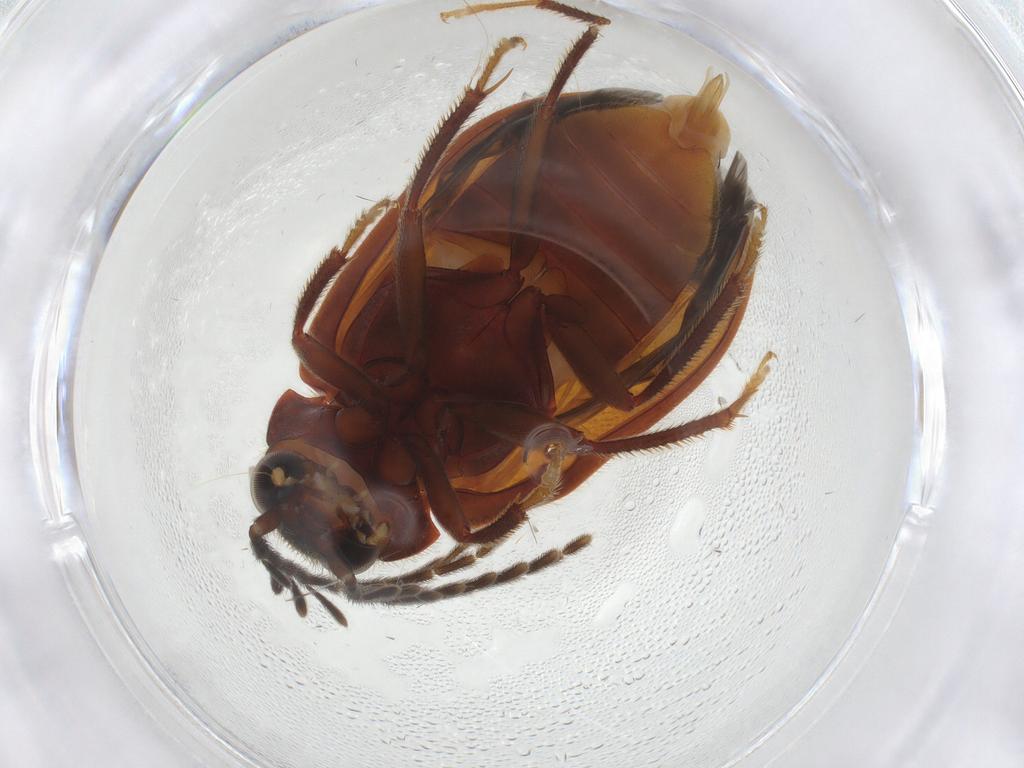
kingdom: Animalia
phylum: Arthropoda
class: Insecta
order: Coleoptera
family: Ptilodactylidae
